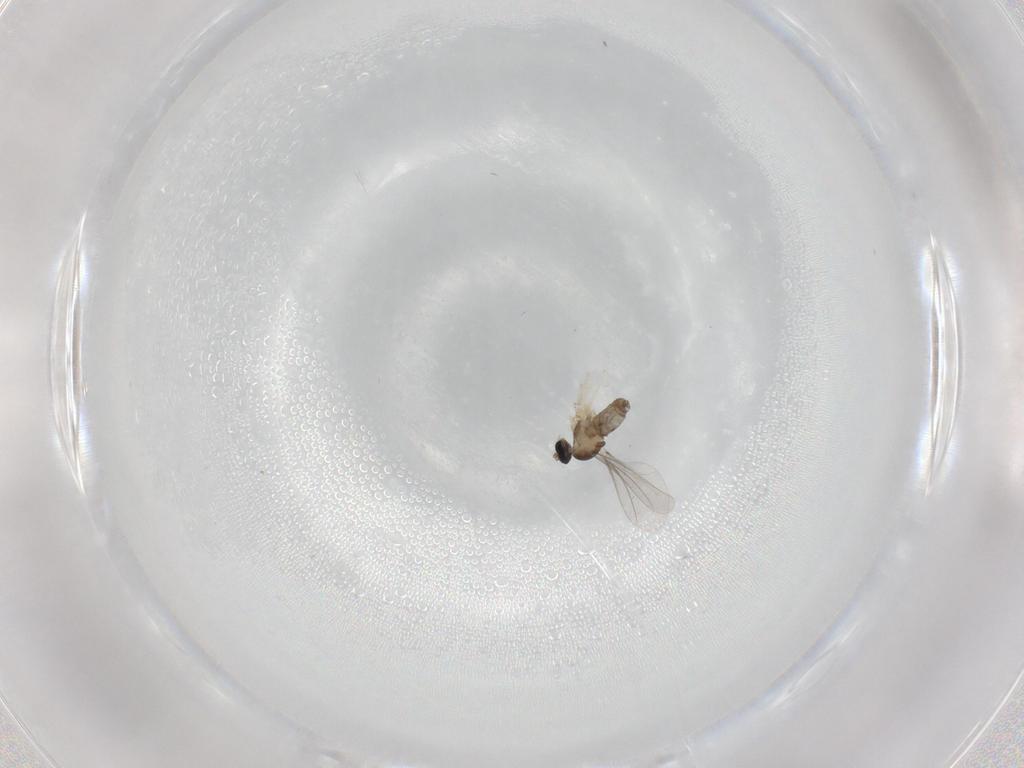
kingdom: Animalia
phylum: Arthropoda
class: Insecta
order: Diptera
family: Cecidomyiidae
